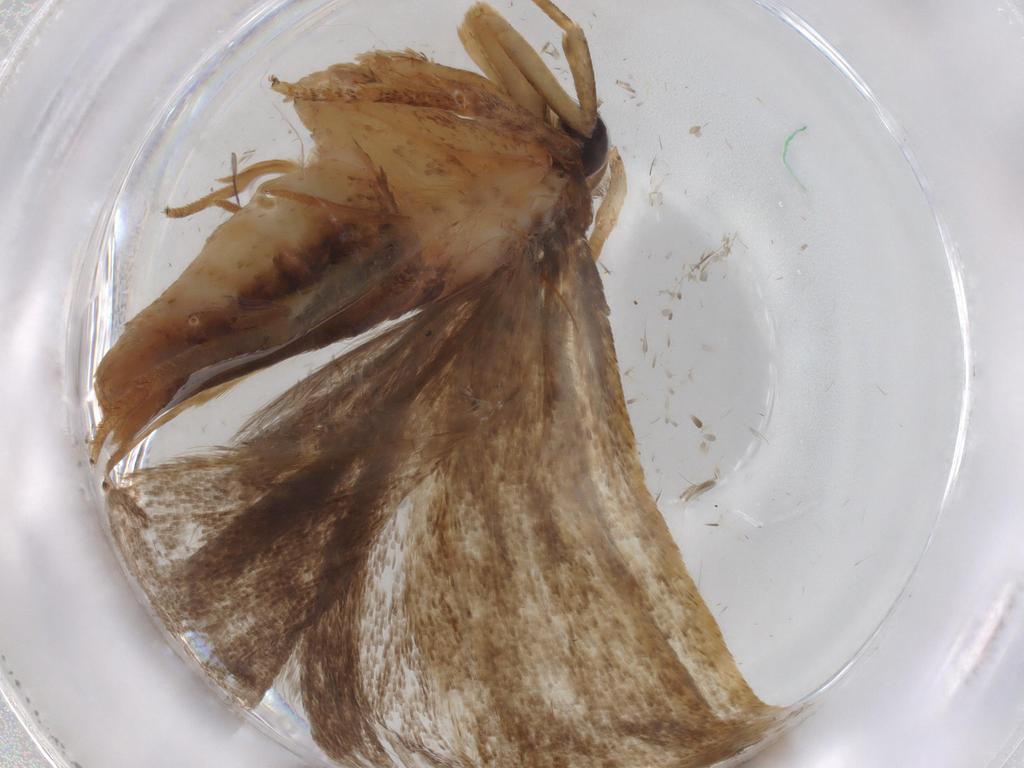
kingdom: Animalia
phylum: Arthropoda
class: Insecta
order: Lepidoptera
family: Autostichidae
